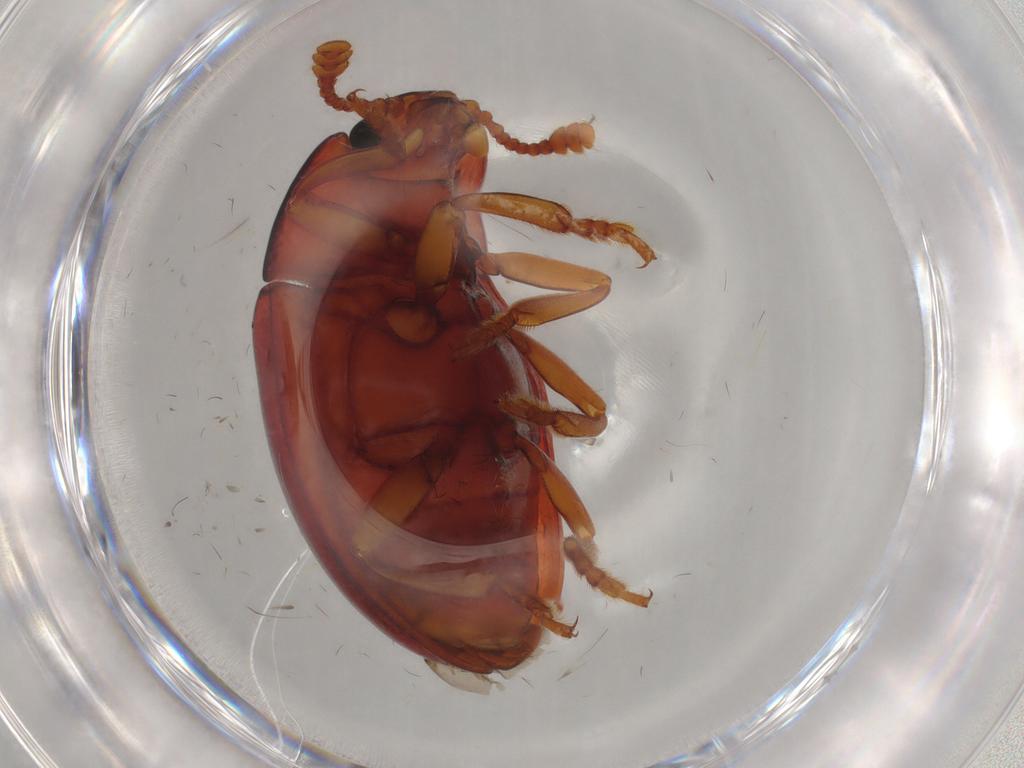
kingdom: Animalia
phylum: Arthropoda
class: Insecta
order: Coleoptera
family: Erotylidae
